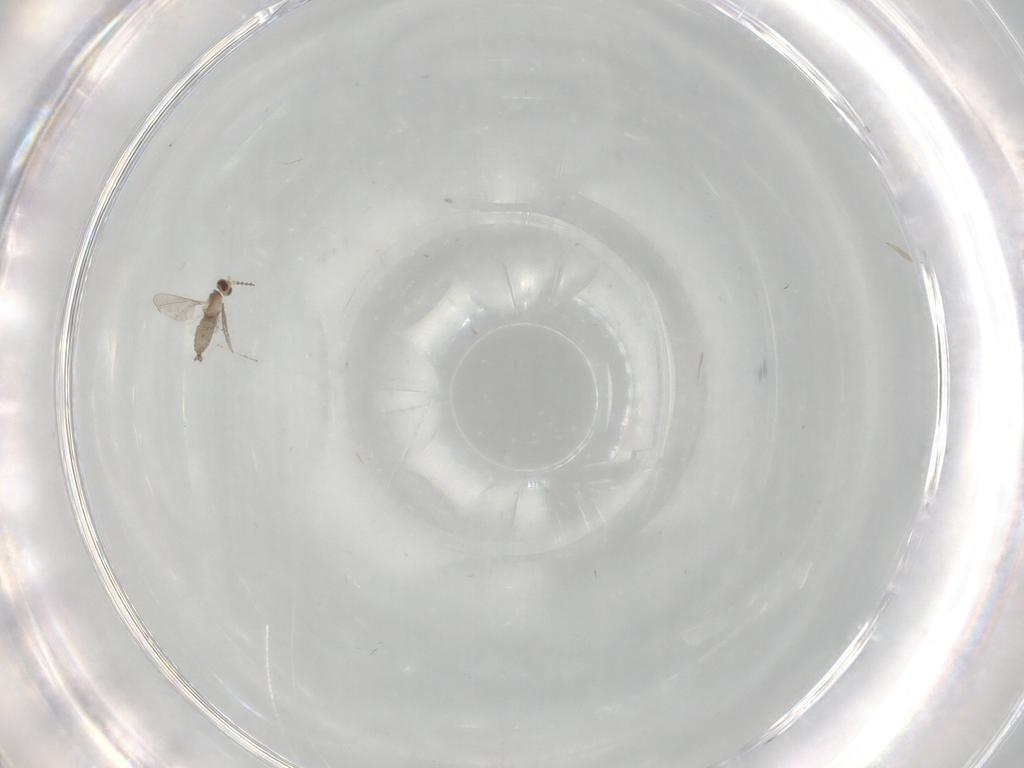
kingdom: Animalia
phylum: Arthropoda
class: Insecta
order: Diptera
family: Cecidomyiidae
